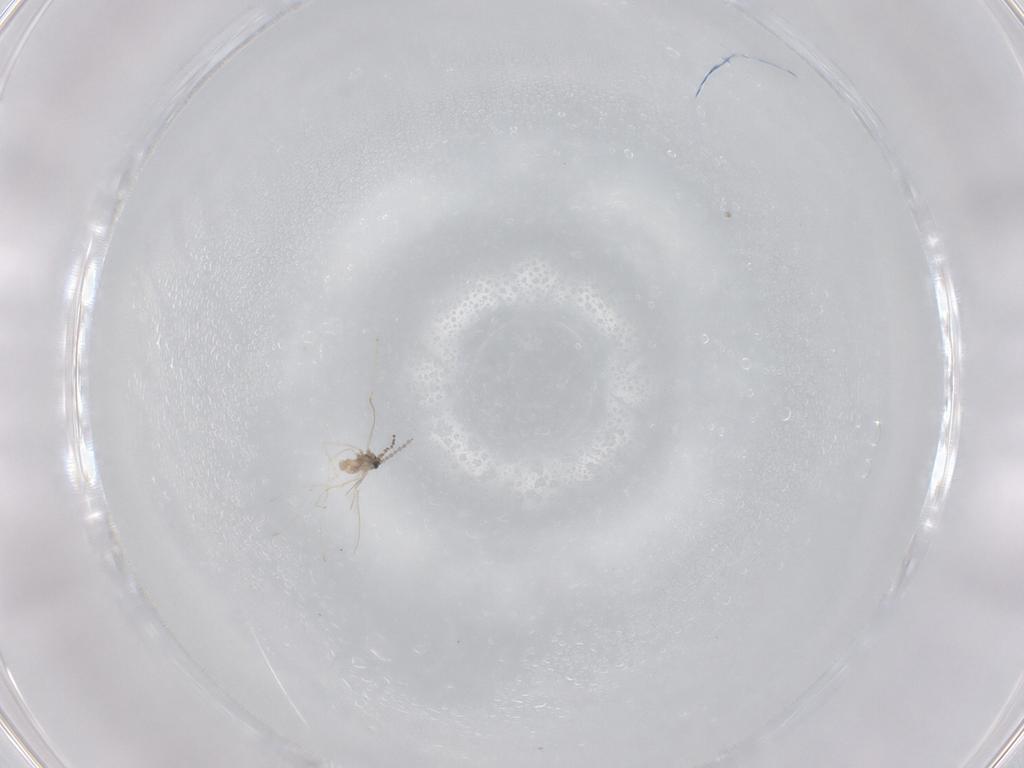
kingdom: Animalia
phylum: Arthropoda
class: Insecta
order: Diptera
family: Cecidomyiidae
